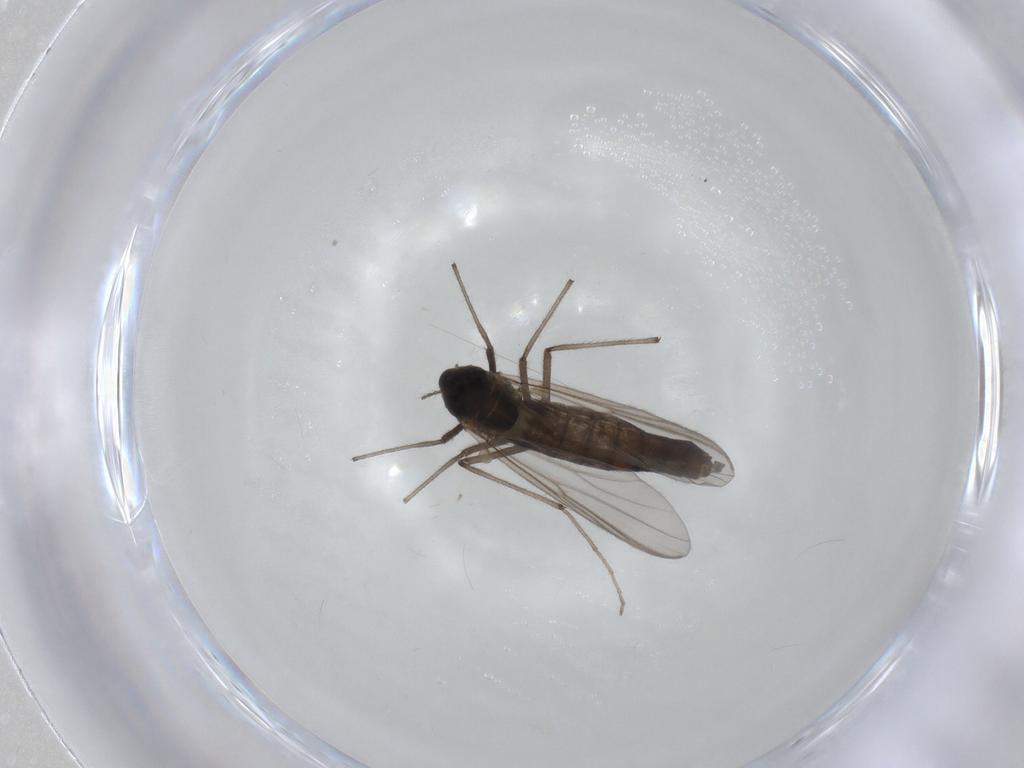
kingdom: Animalia
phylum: Arthropoda
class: Insecta
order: Diptera
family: Chironomidae
